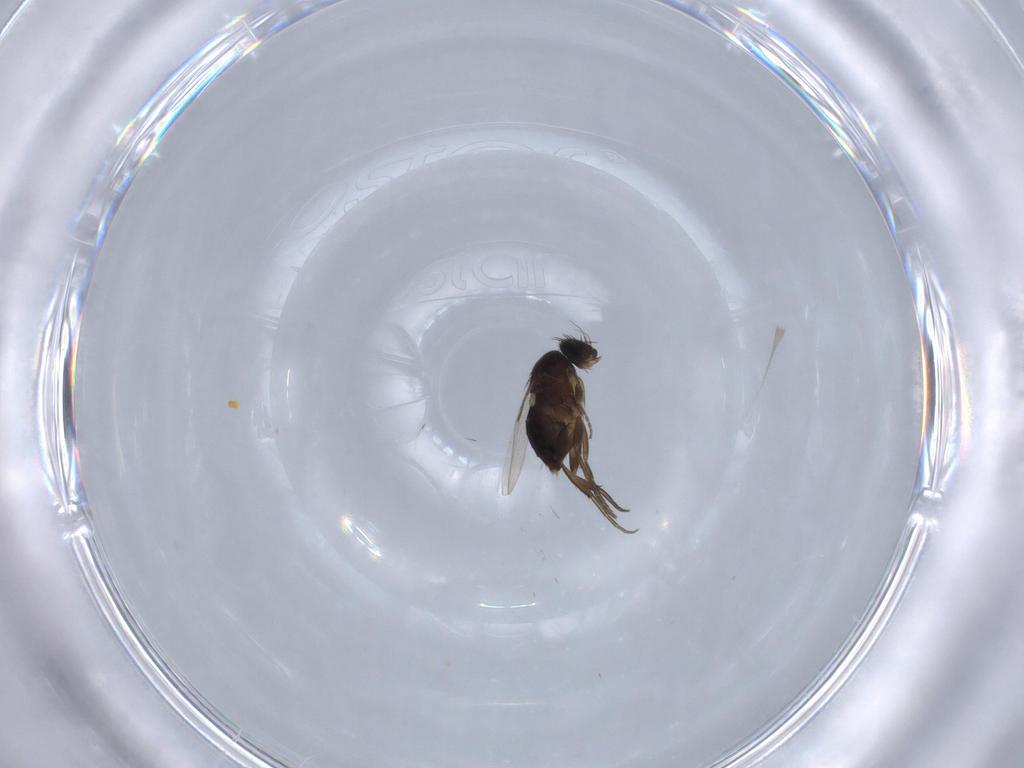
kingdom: Animalia
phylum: Arthropoda
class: Insecta
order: Diptera
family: Phoridae
